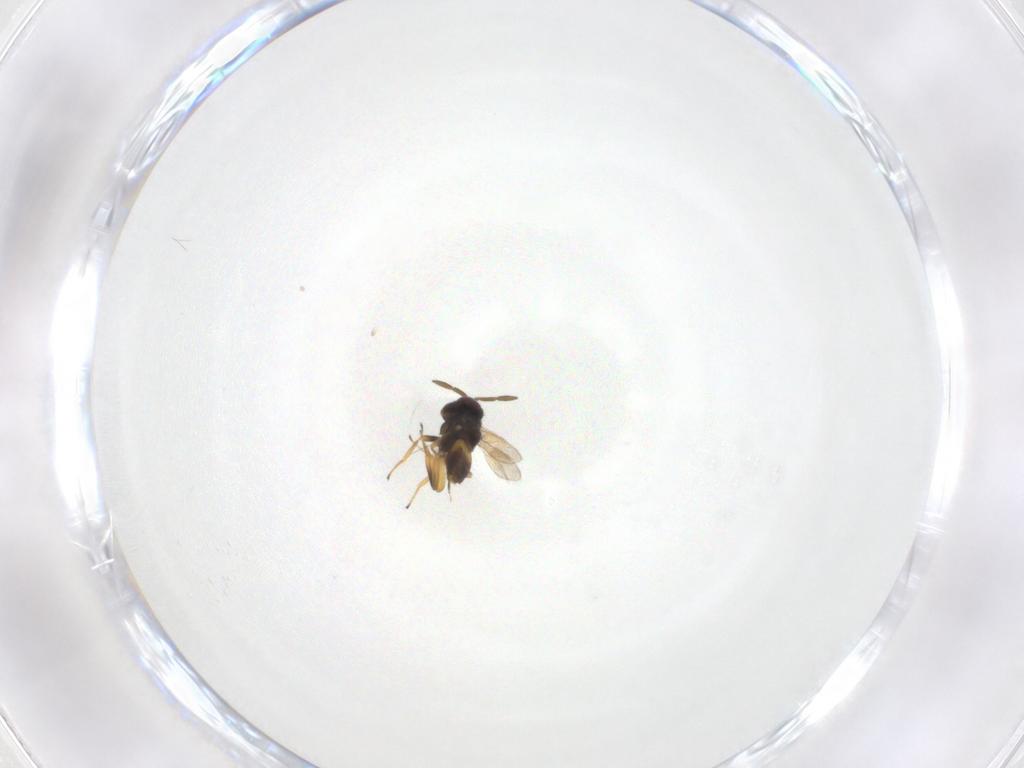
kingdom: Animalia
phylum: Arthropoda
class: Insecta
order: Hymenoptera
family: Aphelinidae
